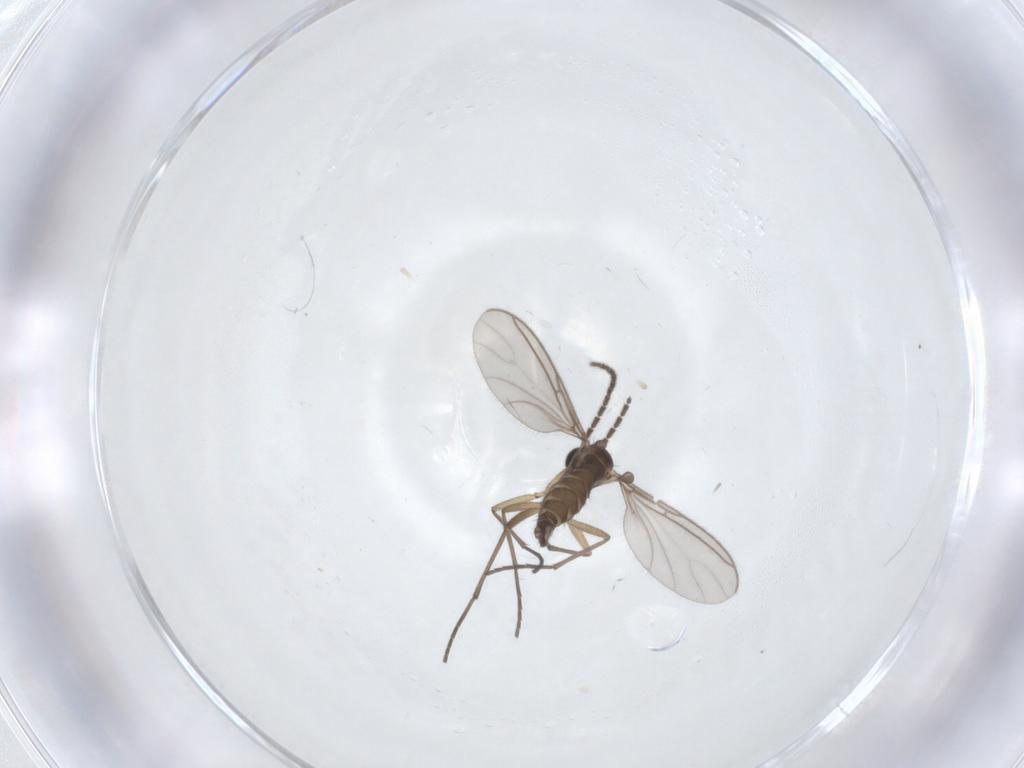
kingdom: Animalia
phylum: Arthropoda
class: Insecta
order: Diptera
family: Sciaridae
